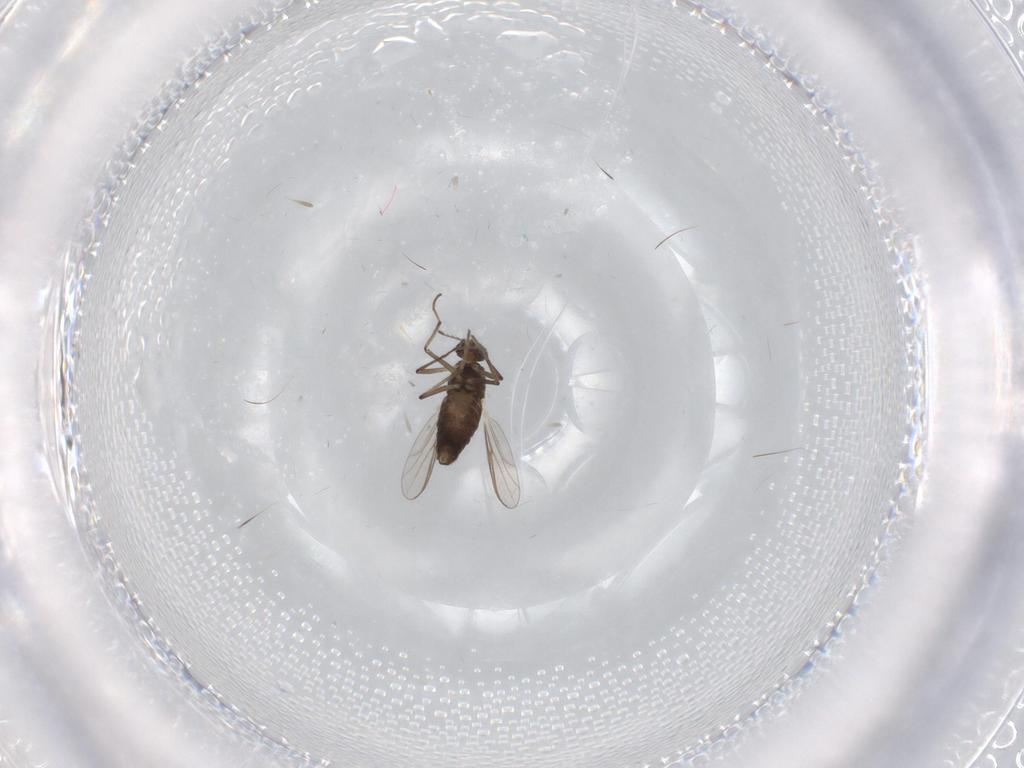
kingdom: Animalia
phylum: Arthropoda
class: Insecta
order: Diptera
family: Chironomidae
